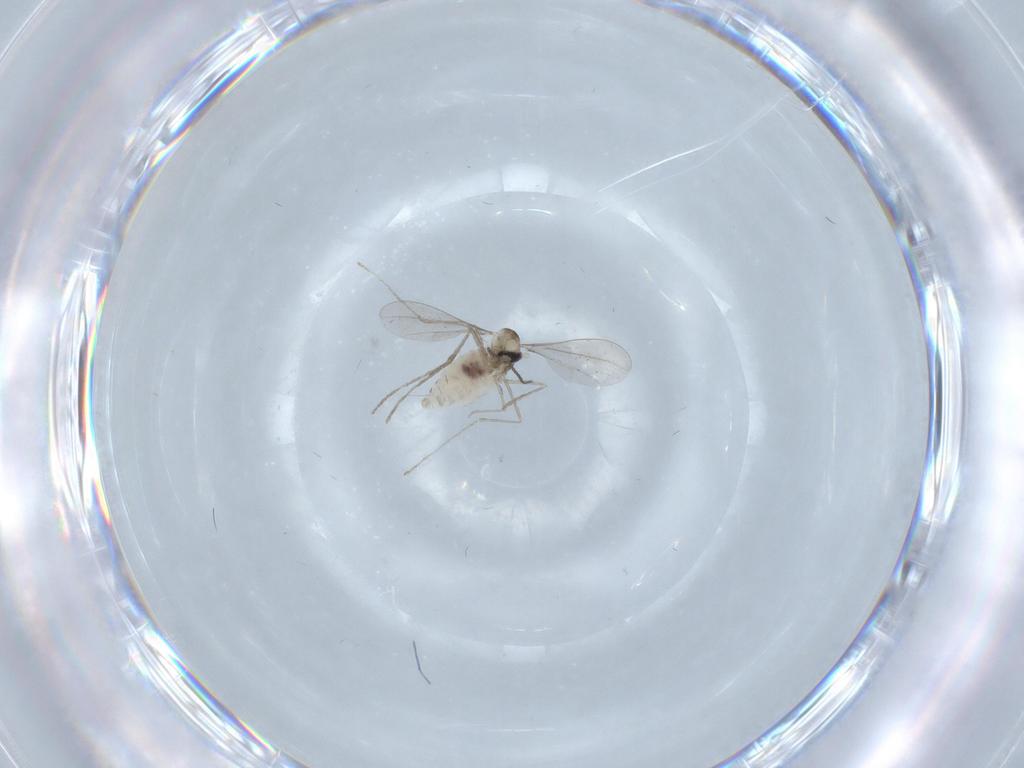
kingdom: Animalia
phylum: Arthropoda
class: Insecta
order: Diptera
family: Cecidomyiidae
